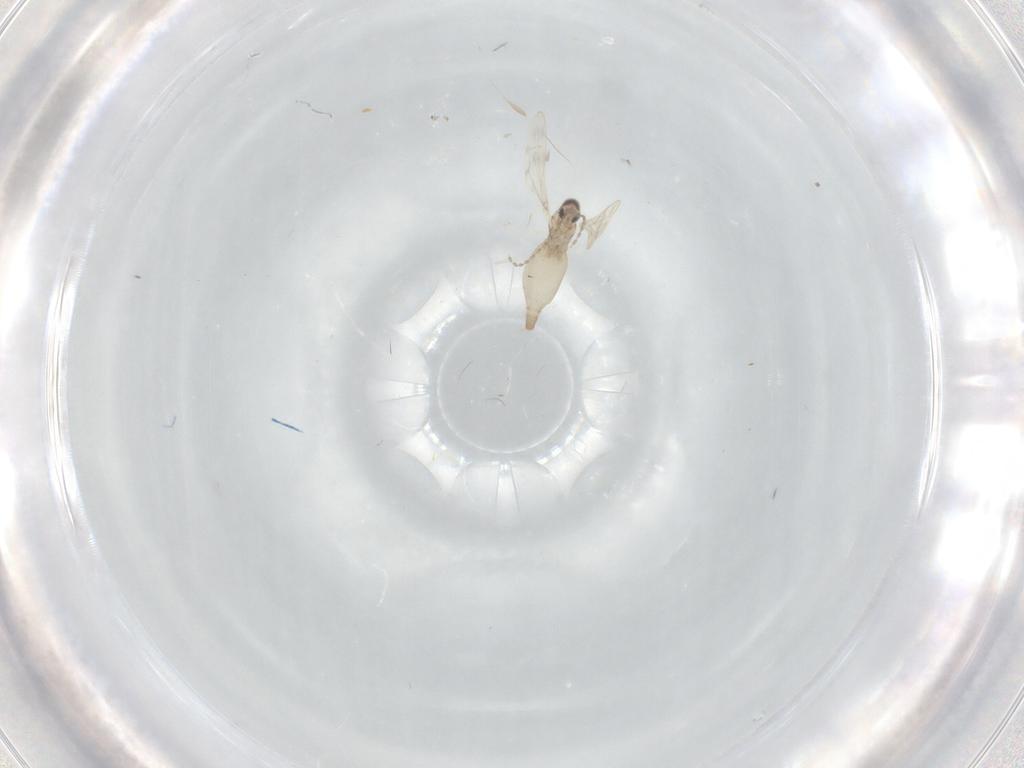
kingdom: Animalia
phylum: Arthropoda
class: Insecta
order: Diptera
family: Cecidomyiidae
